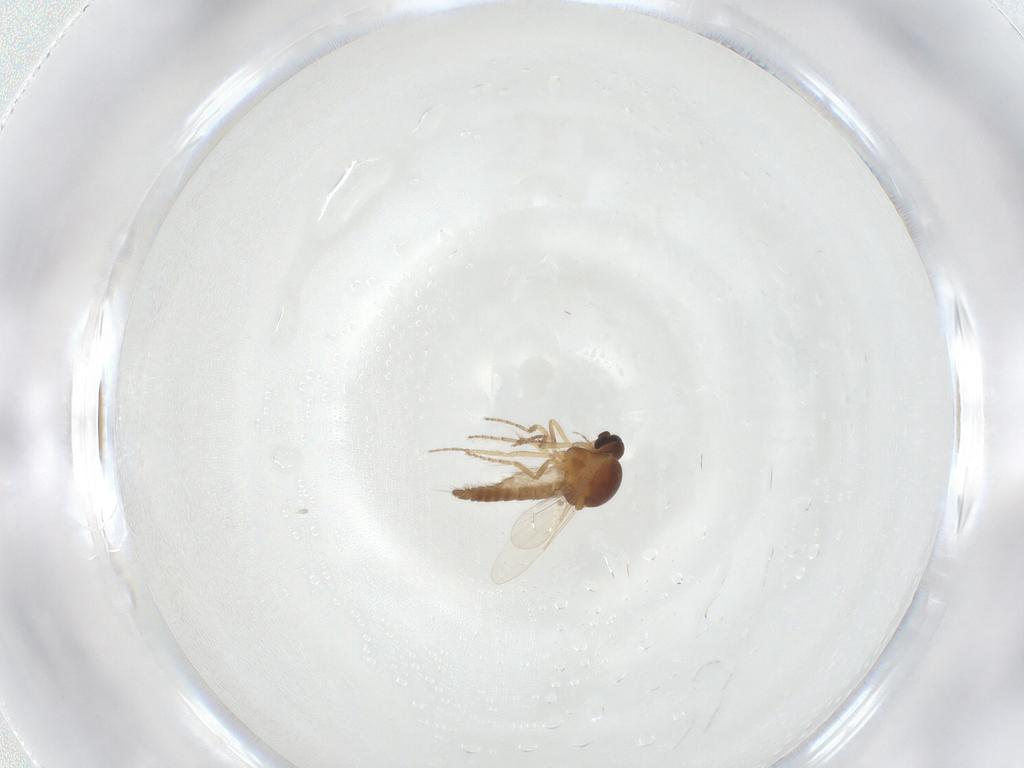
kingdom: Animalia
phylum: Arthropoda
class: Insecta
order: Diptera
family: Ceratopogonidae
